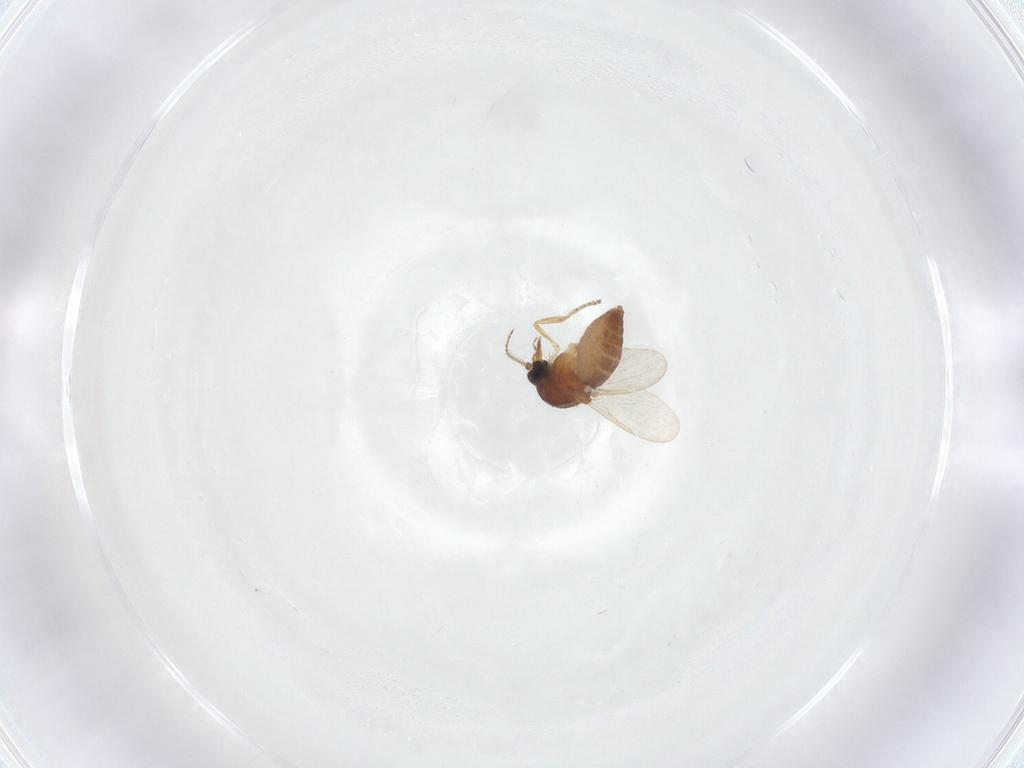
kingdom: Animalia
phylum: Arthropoda
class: Insecta
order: Diptera
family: Ceratopogonidae
